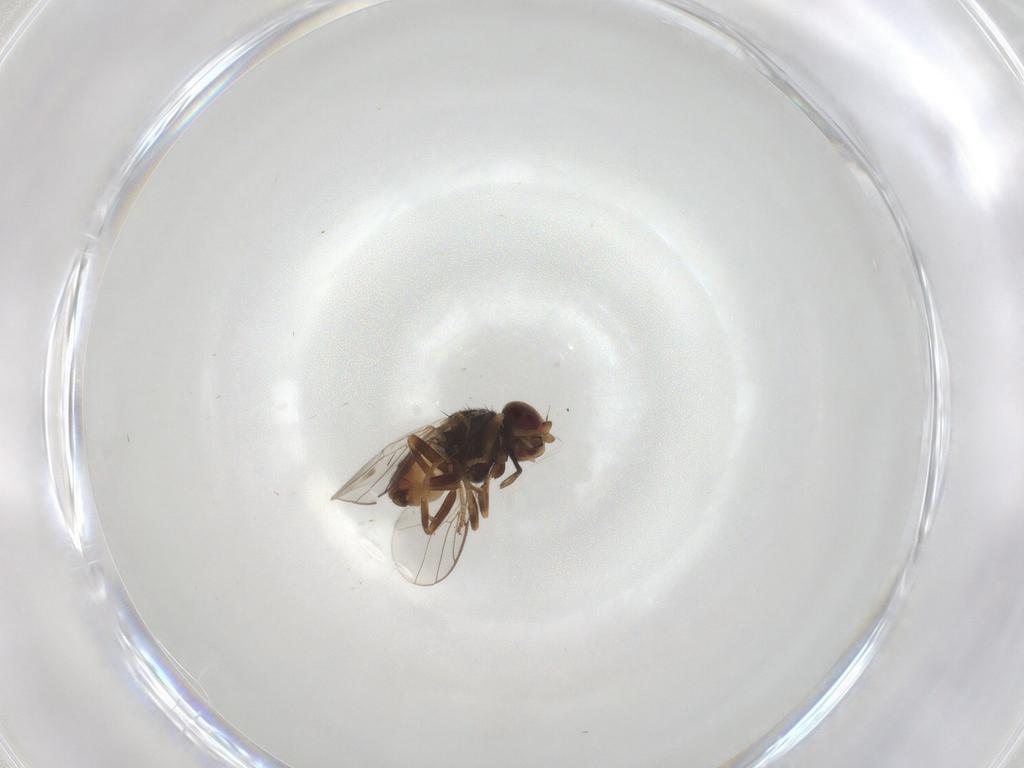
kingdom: Animalia
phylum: Arthropoda
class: Insecta
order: Diptera
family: Chloropidae
